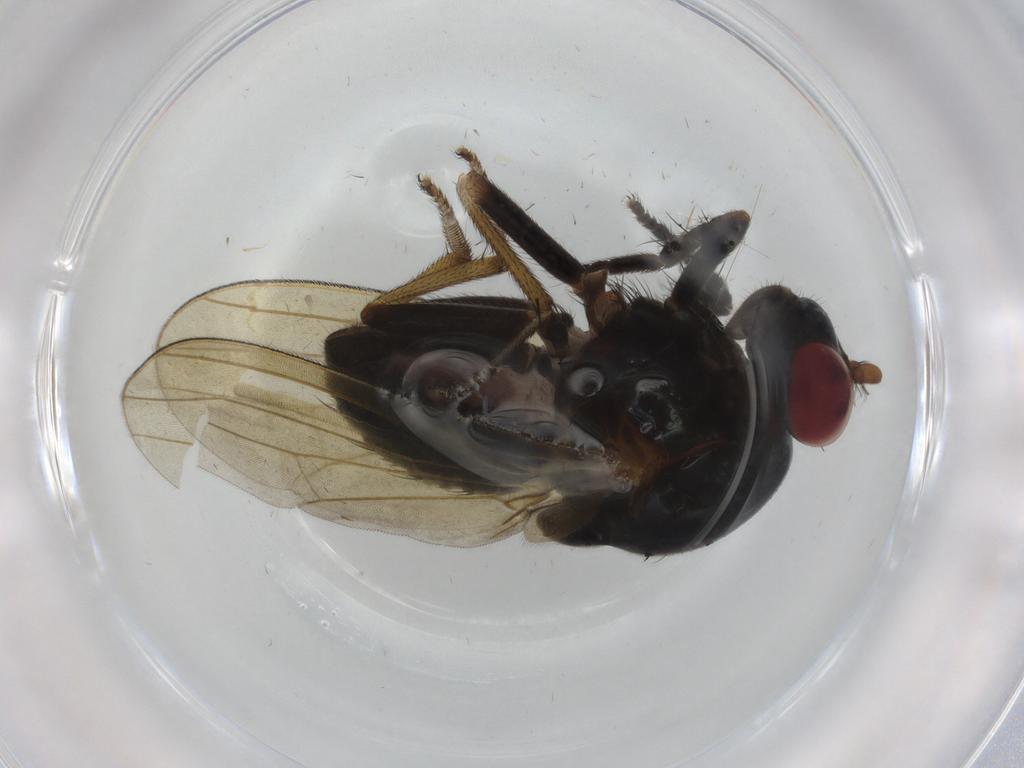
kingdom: Animalia
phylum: Arthropoda
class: Insecta
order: Diptera
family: Lauxaniidae
